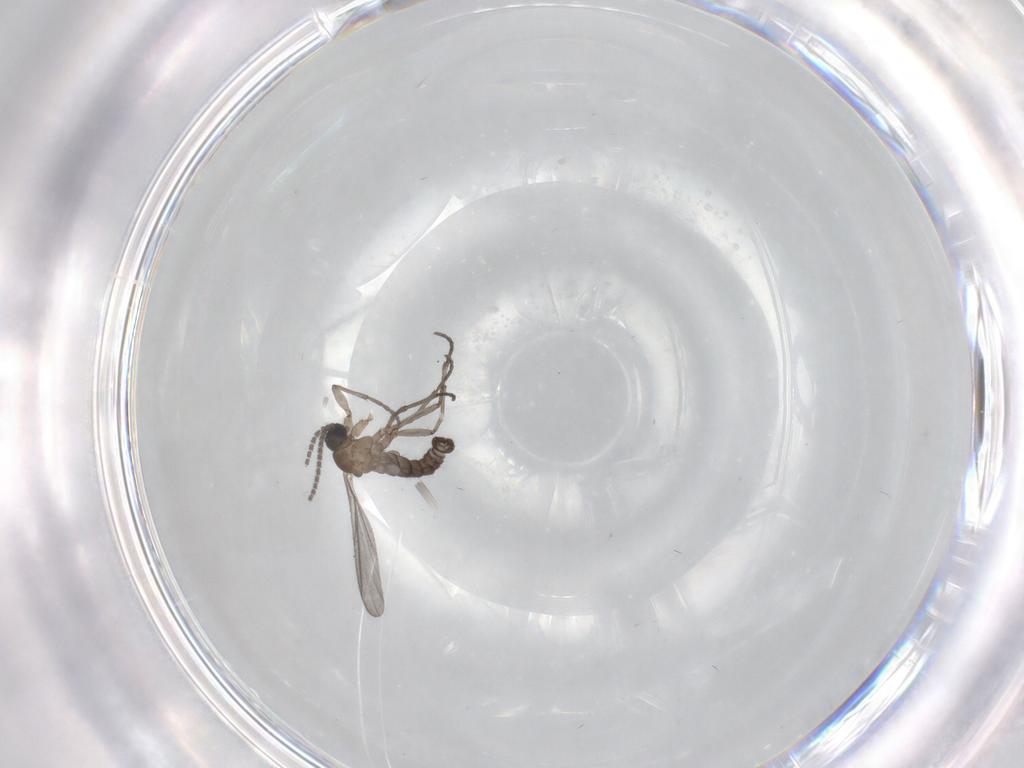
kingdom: Animalia
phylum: Arthropoda
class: Insecta
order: Diptera
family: Sciaridae
